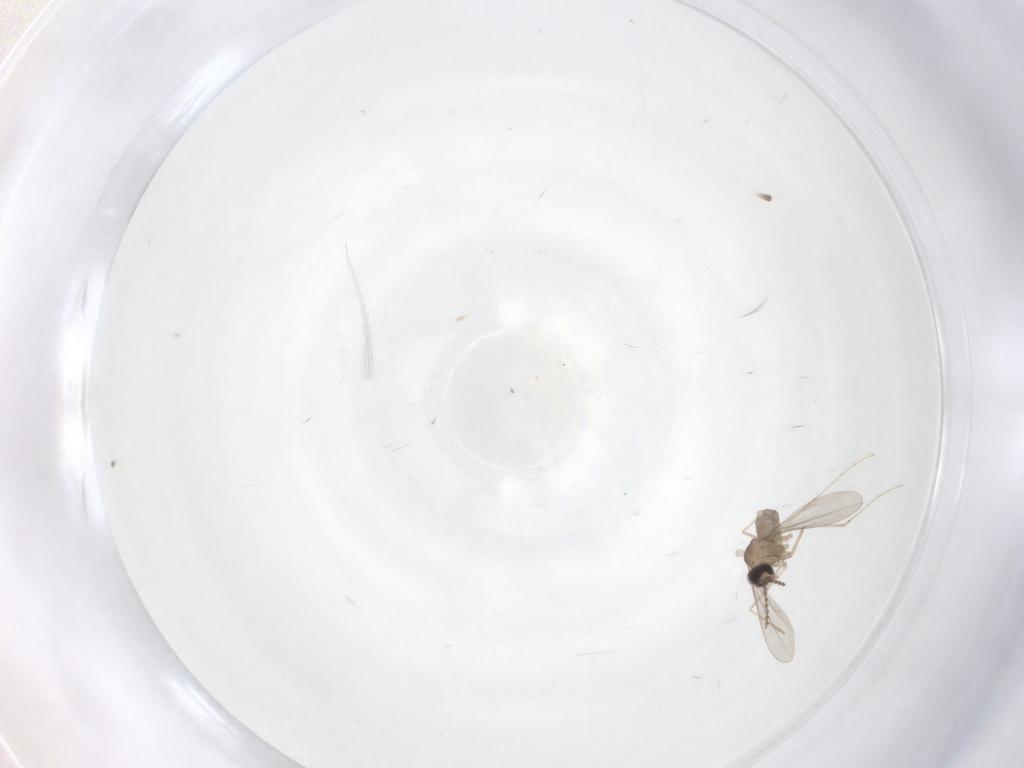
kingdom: Animalia
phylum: Arthropoda
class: Insecta
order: Diptera
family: Cecidomyiidae
